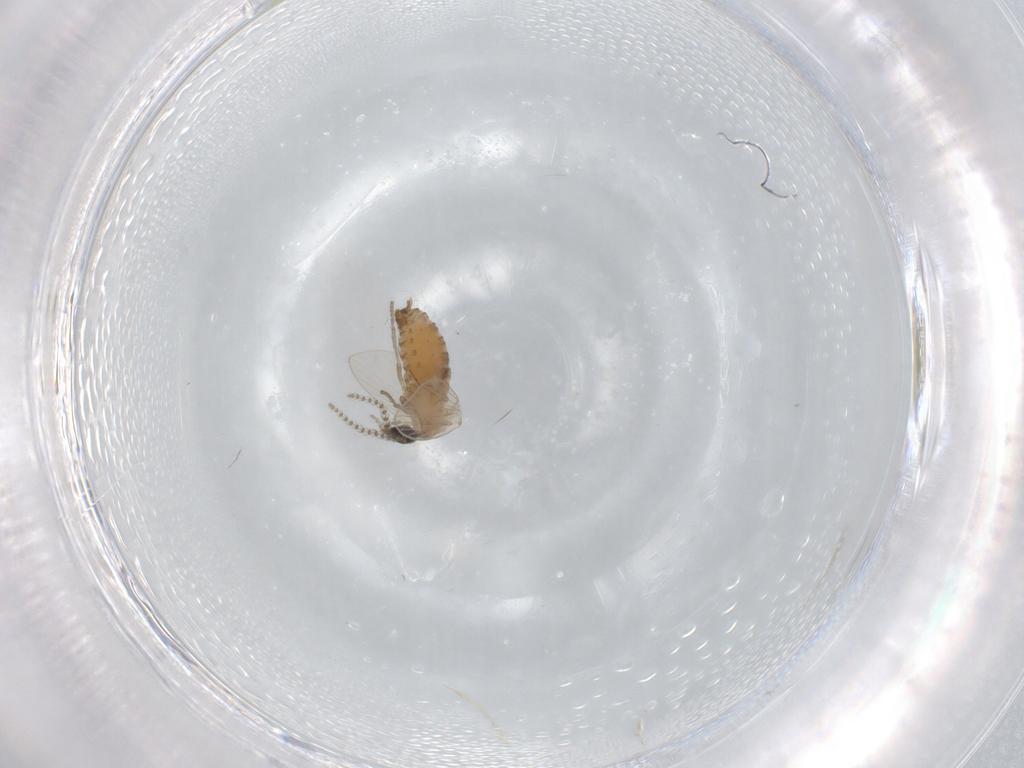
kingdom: Animalia
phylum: Arthropoda
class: Insecta
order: Diptera
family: Psychodidae
